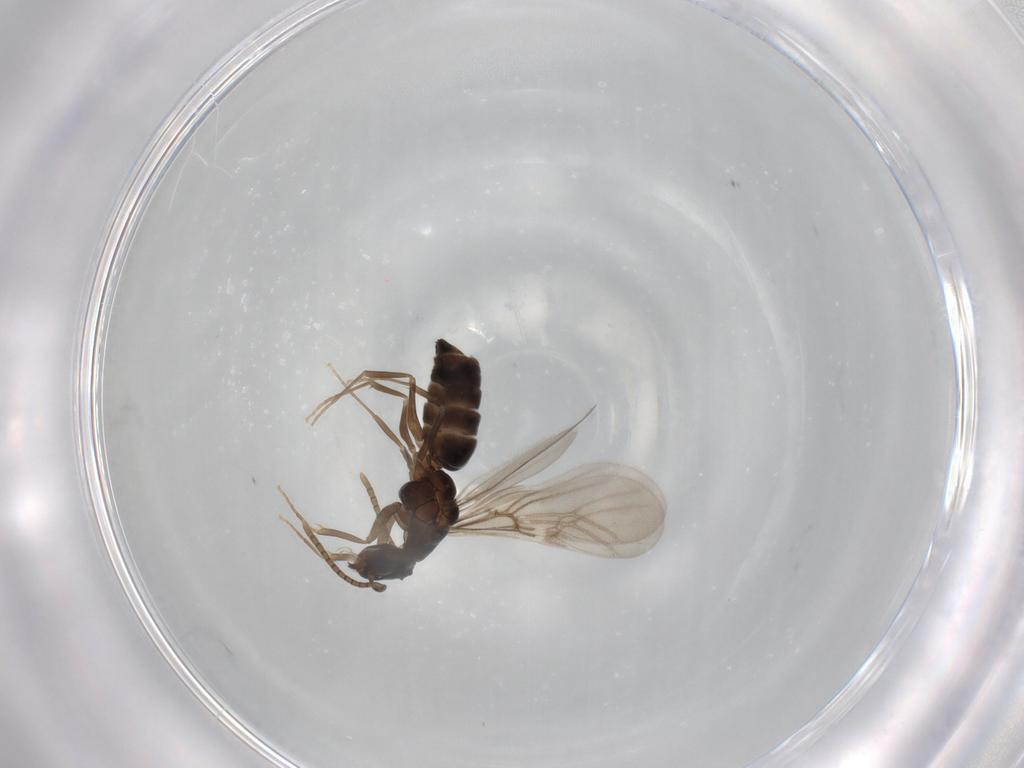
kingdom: Animalia
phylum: Arthropoda
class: Insecta
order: Hymenoptera
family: Formicidae
